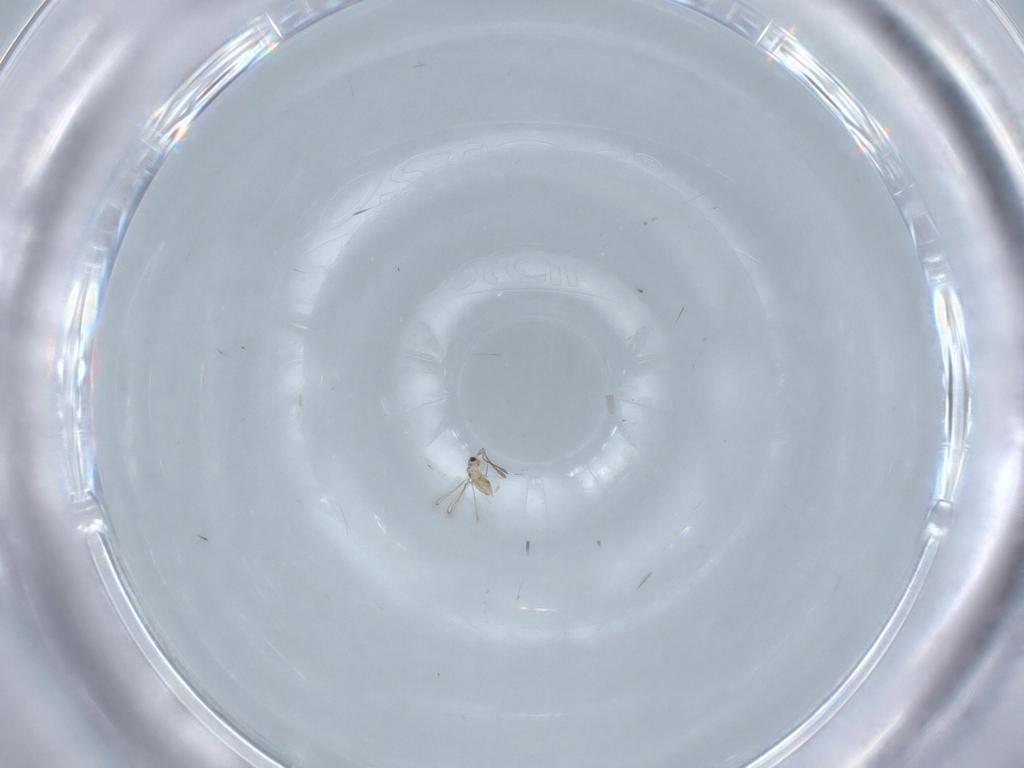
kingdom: Animalia
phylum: Arthropoda
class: Insecta
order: Hymenoptera
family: Mymaridae
